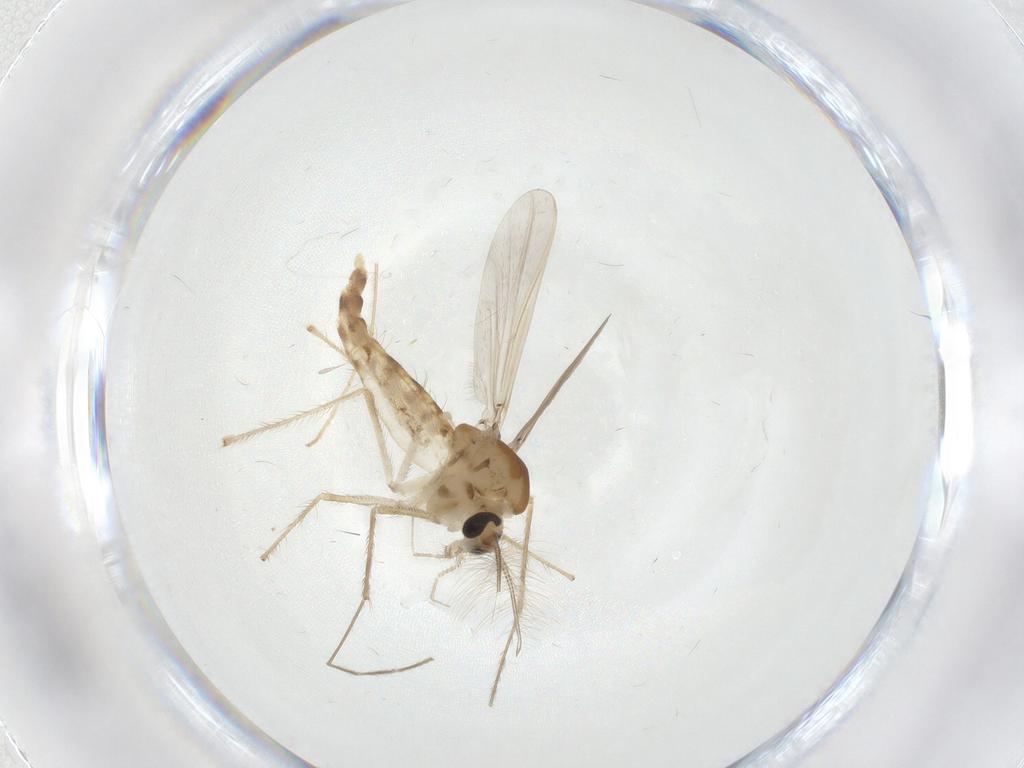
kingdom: Animalia
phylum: Arthropoda
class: Insecta
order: Diptera
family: Chironomidae
